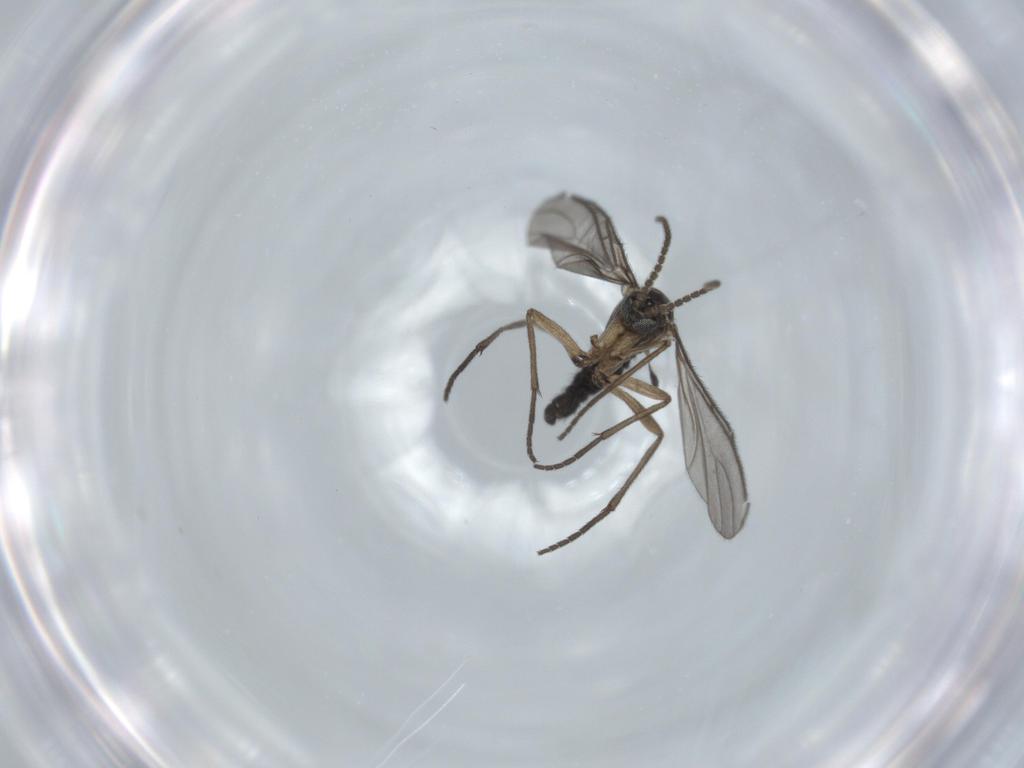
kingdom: Animalia
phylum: Arthropoda
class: Insecta
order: Diptera
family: Sciaridae
